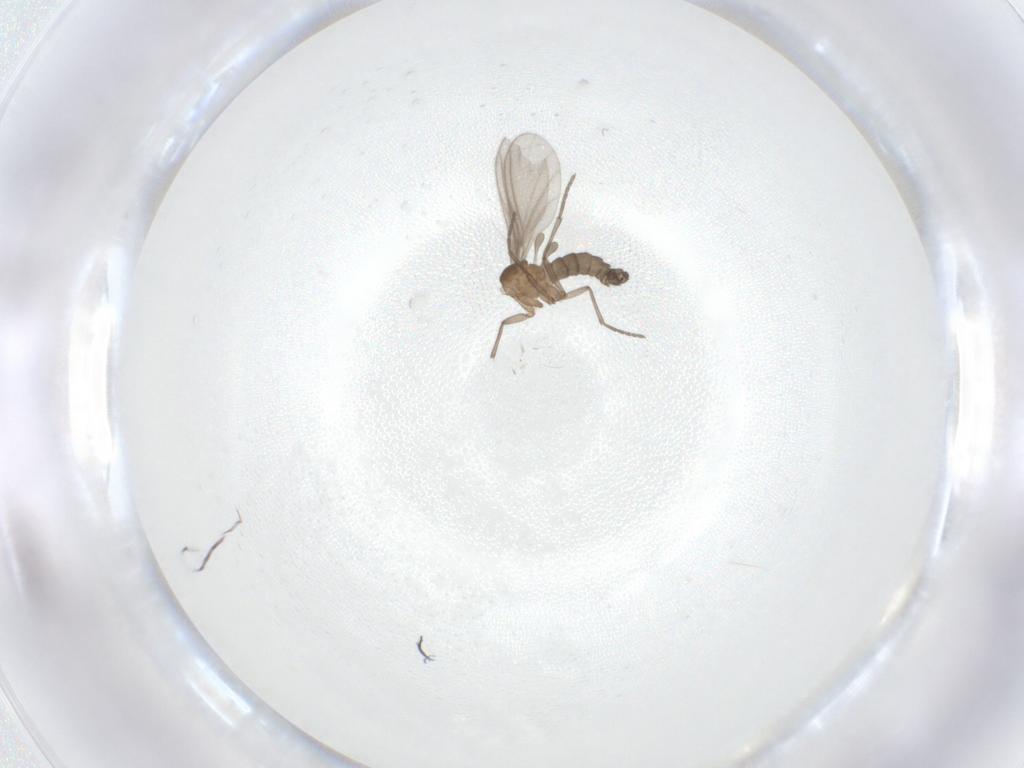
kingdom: Animalia
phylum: Arthropoda
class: Insecta
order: Diptera
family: Sciaridae
